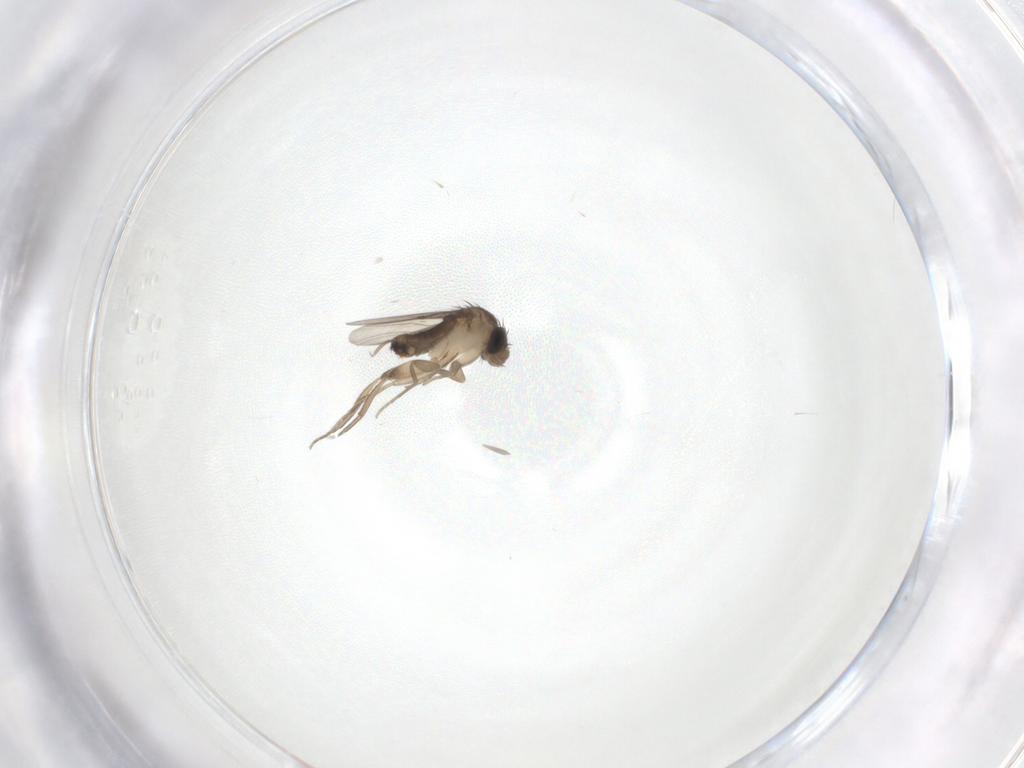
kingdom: Animalia
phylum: Arthropoda
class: Insecta
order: Diptera
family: Phoridae
